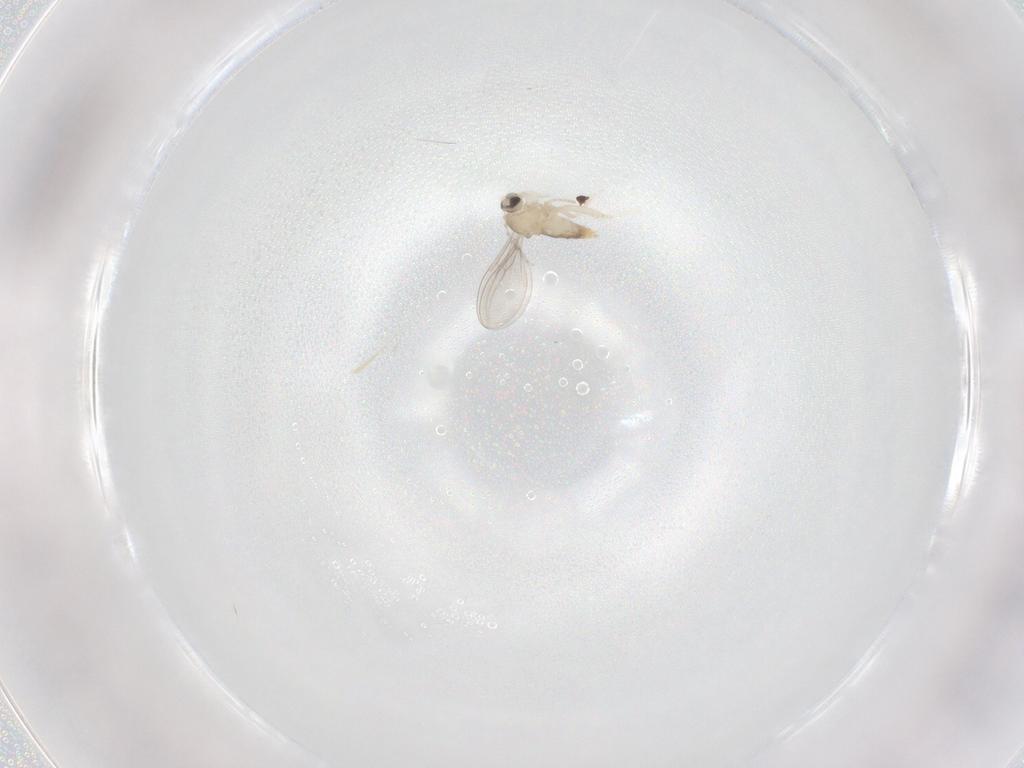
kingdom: Animalia
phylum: Arthropoda
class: Insecta
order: Diptera
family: Cecidomyiidae
